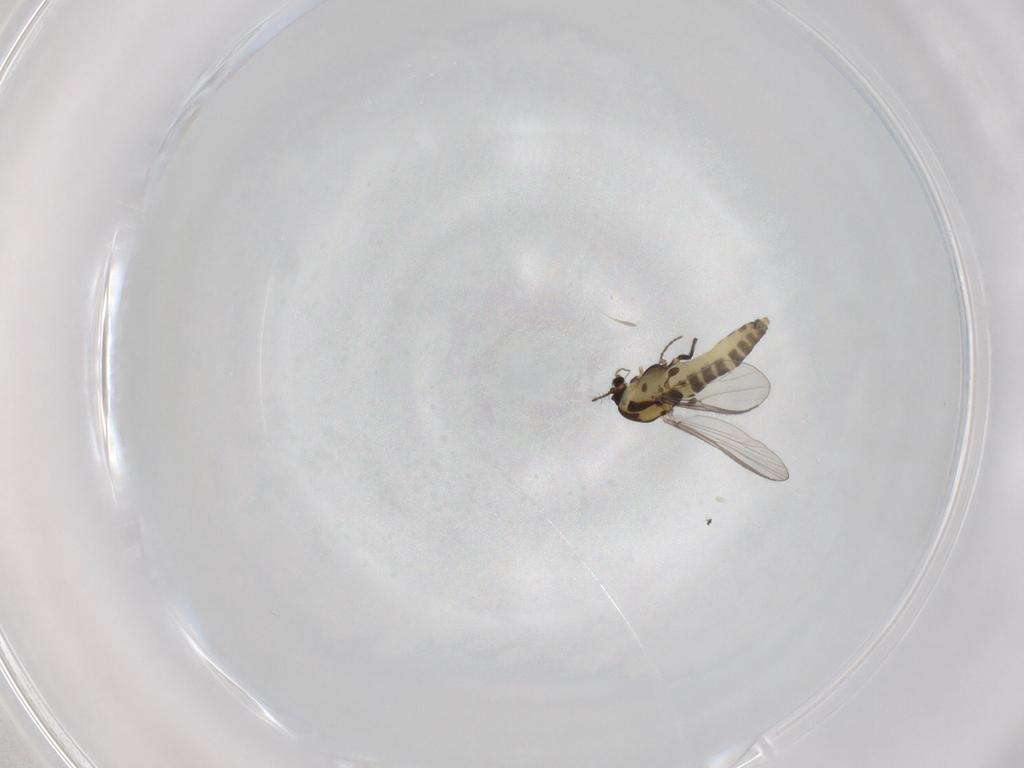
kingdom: Animalia
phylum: Arthropoda
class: Insecta
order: Diptera
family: Chironomidae
